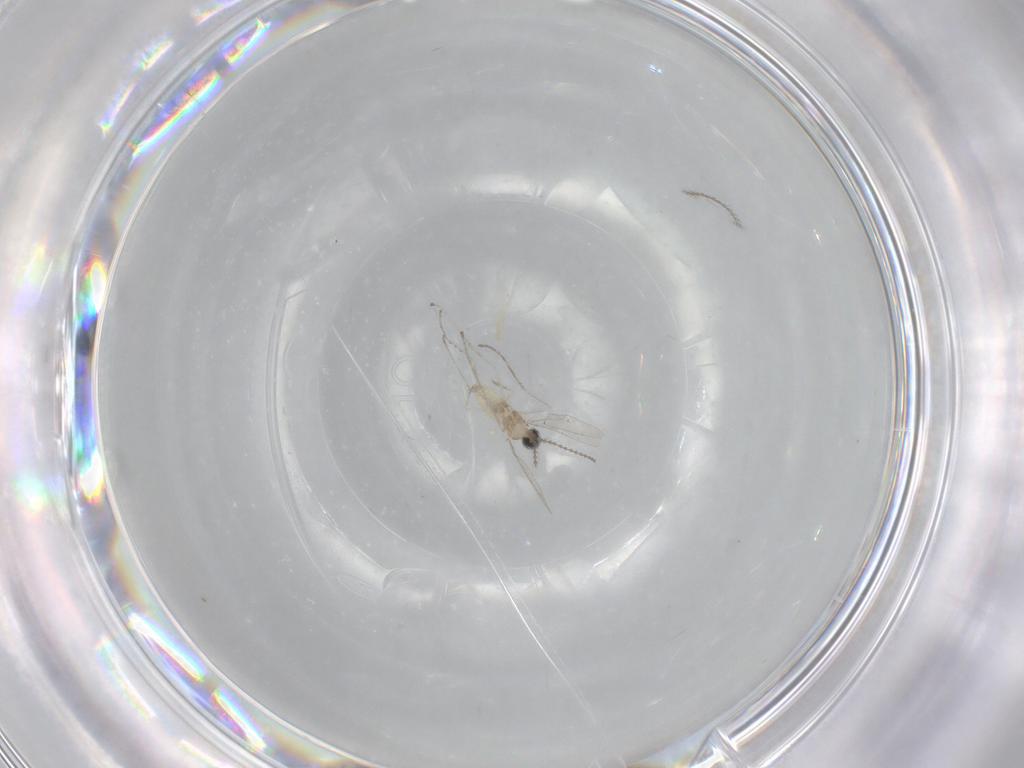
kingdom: Animalia
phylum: Arthropoda
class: Insecta
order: Diptera
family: Cecidomyiidae
